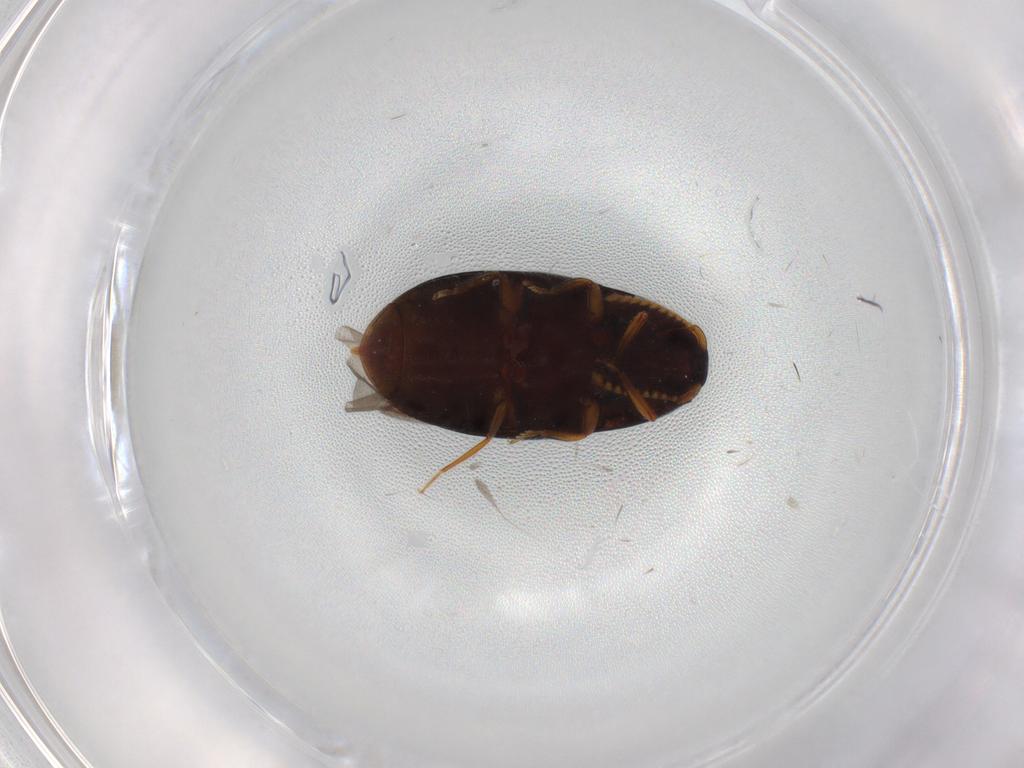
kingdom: Animalia
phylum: Arthropoda
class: Insecta
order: Coleoptera
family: Elateridae
